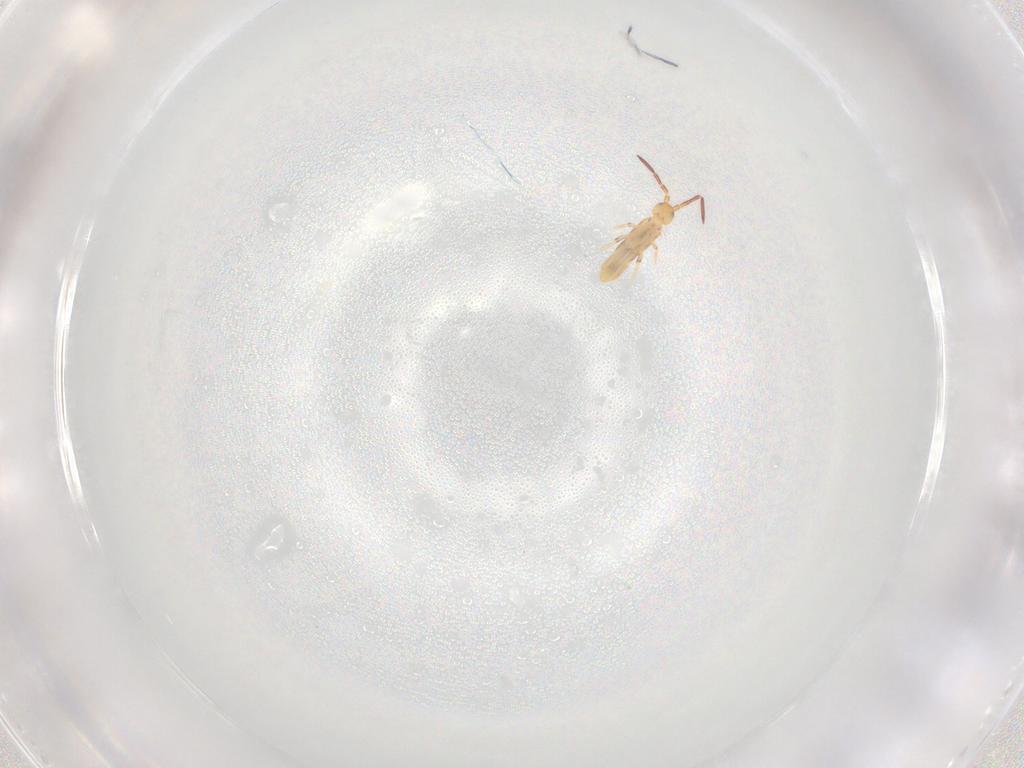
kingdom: Animalia
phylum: Arthropoda
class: Collembola
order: Poduromorpha
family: Hypogastruridae
